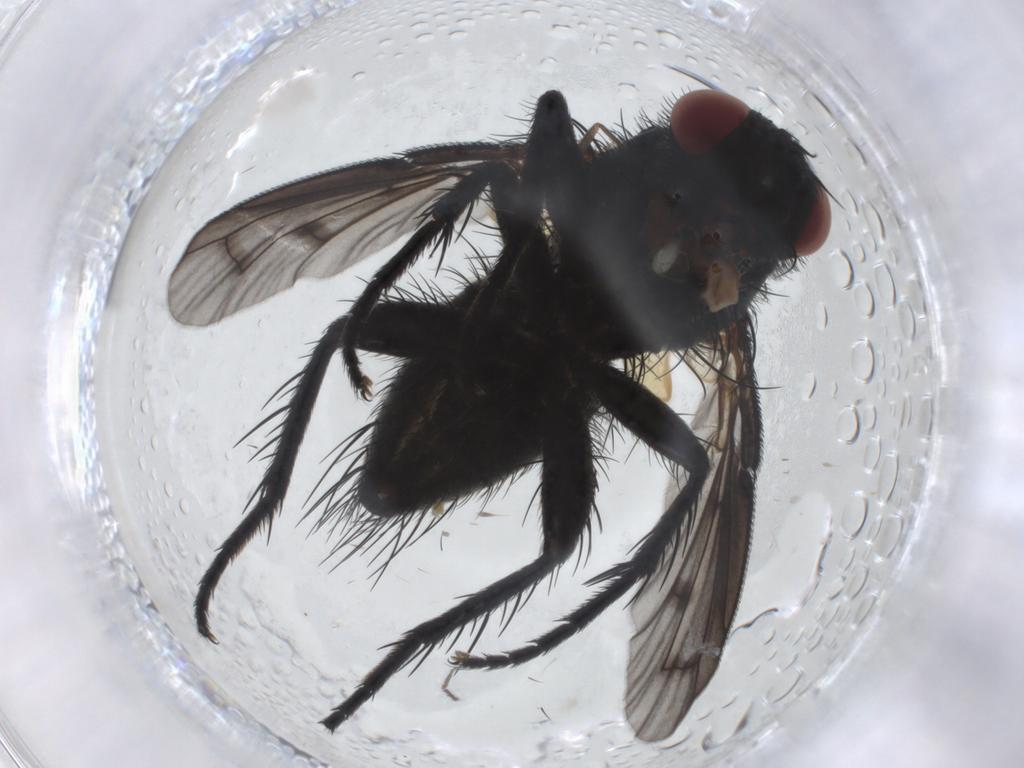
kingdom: Animalia
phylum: Arthropoda
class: Insecta
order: Diptera
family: Tachinidae
